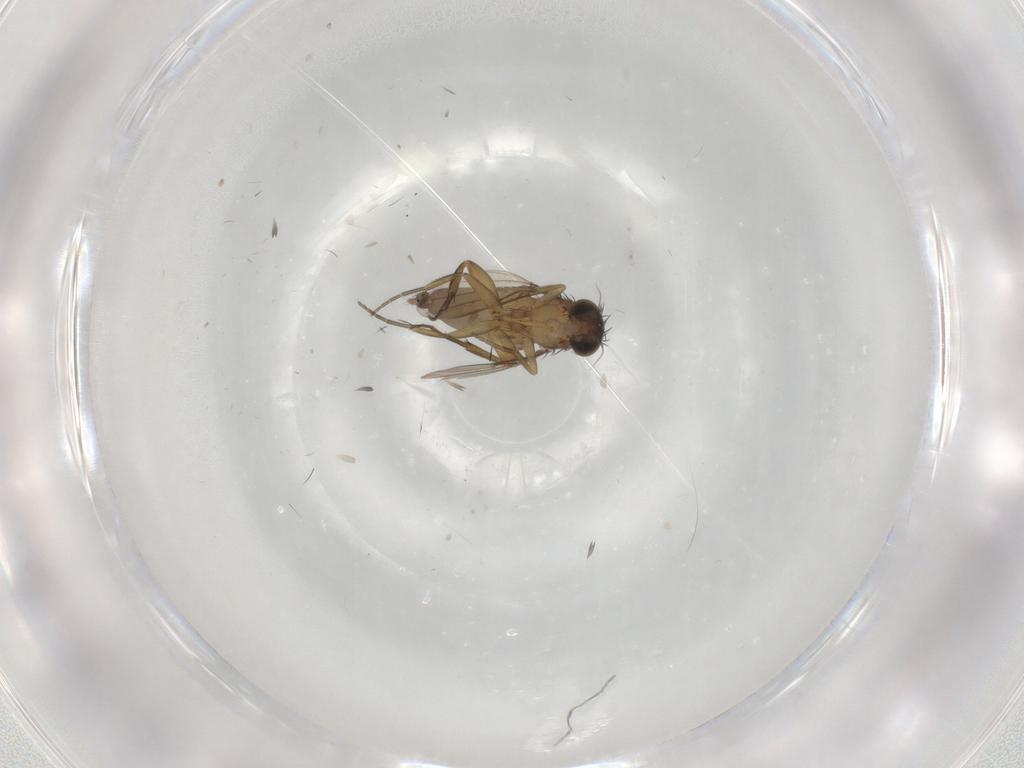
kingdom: Animalia
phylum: Arthropoda
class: Insecta
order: Diptera
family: Phoridae
